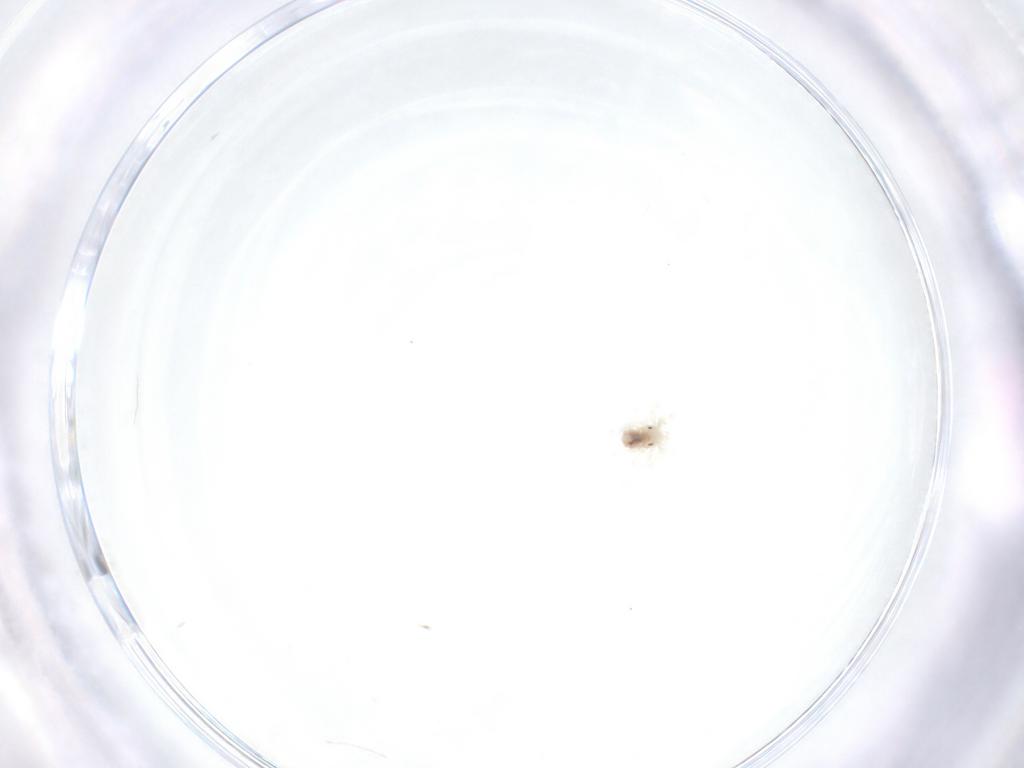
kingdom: Animalia
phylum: Arthropoda
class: Arachnida
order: Trombidiformes
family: Anystidae
